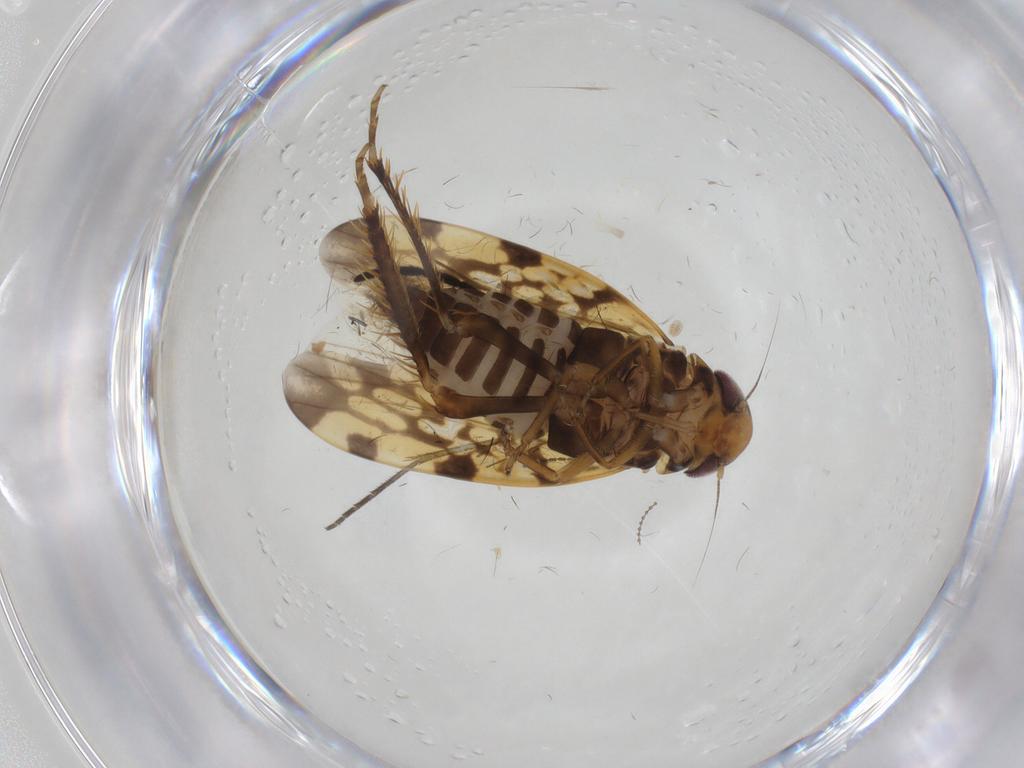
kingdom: Animalia
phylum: Arthropoda
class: Insecta
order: Hemiptera
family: Cicadellidae
